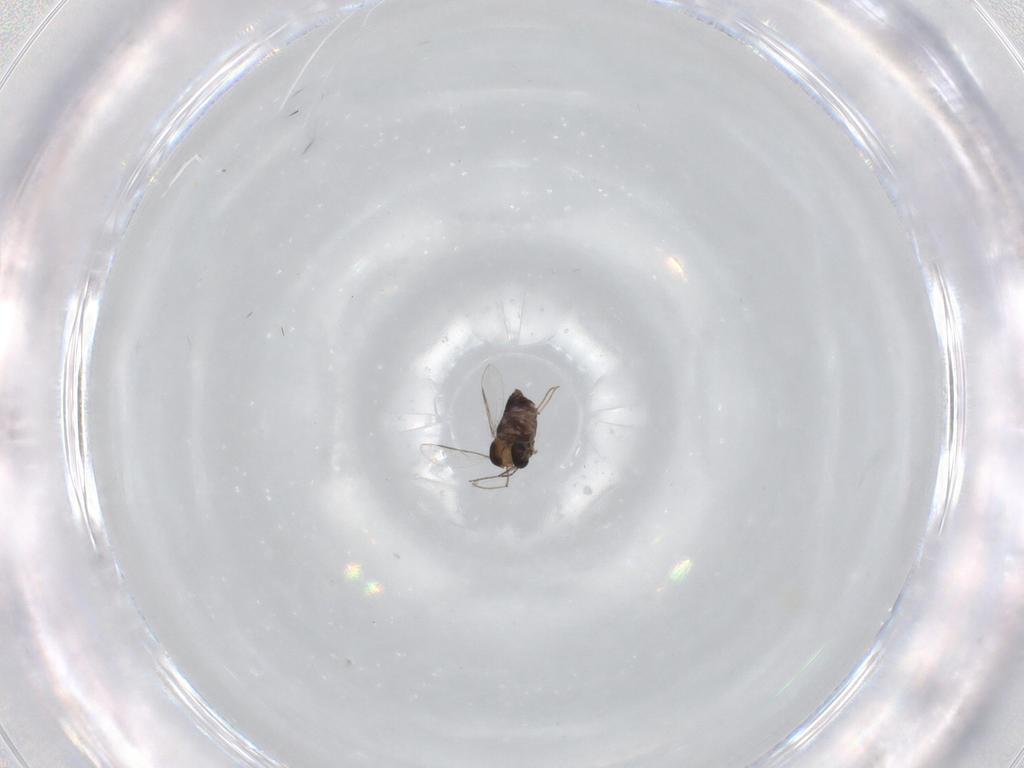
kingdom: Animalia
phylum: Arthropoda
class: Insecta
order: Diptera
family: Chironomidae
